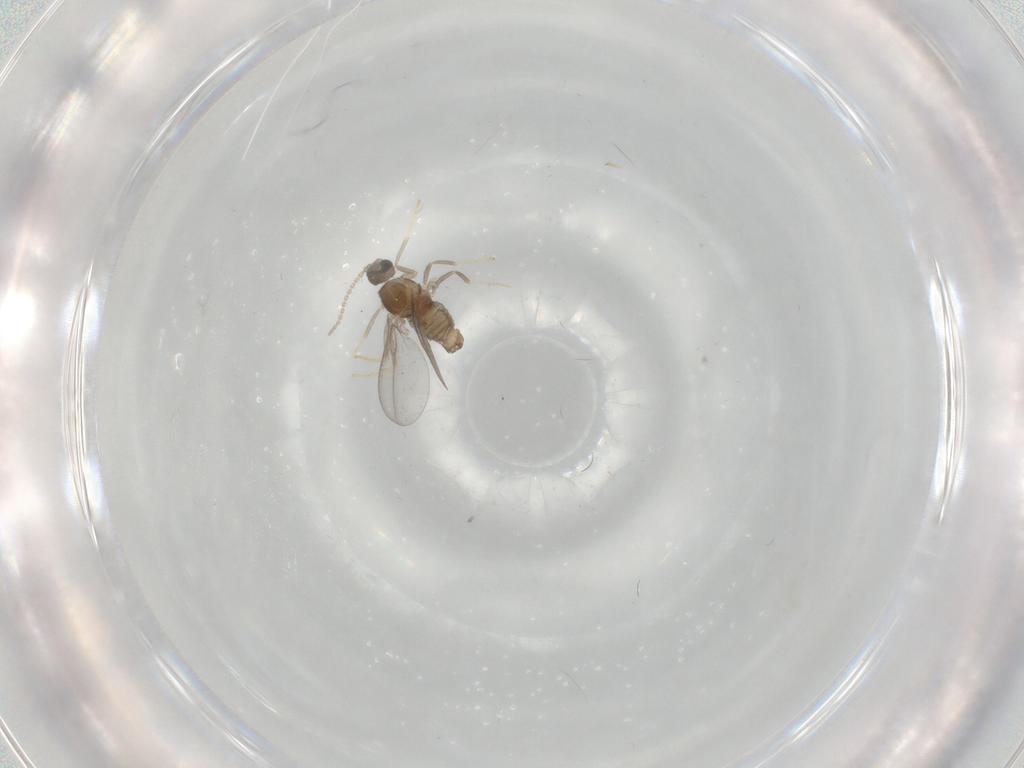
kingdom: Animalia
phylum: Arthropoda
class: Insecta
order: Diptera
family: Cecidomyiidae
